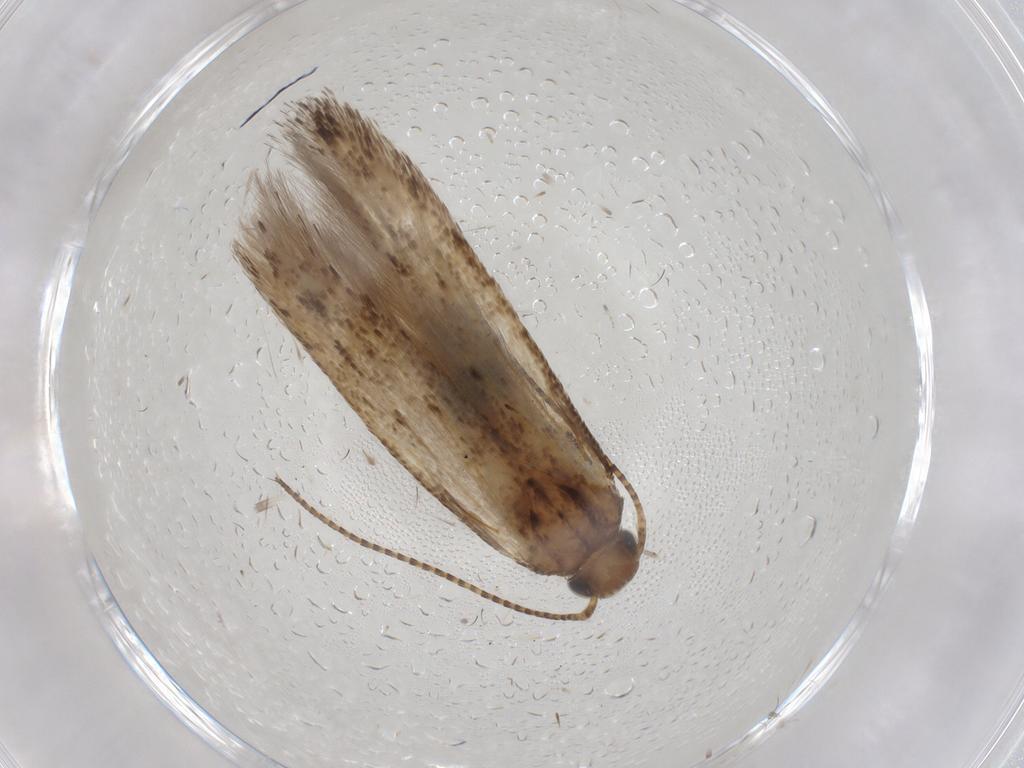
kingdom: Animalia
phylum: Arthropoda
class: Insecta
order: Lepidoptera
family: Gelechiidae
